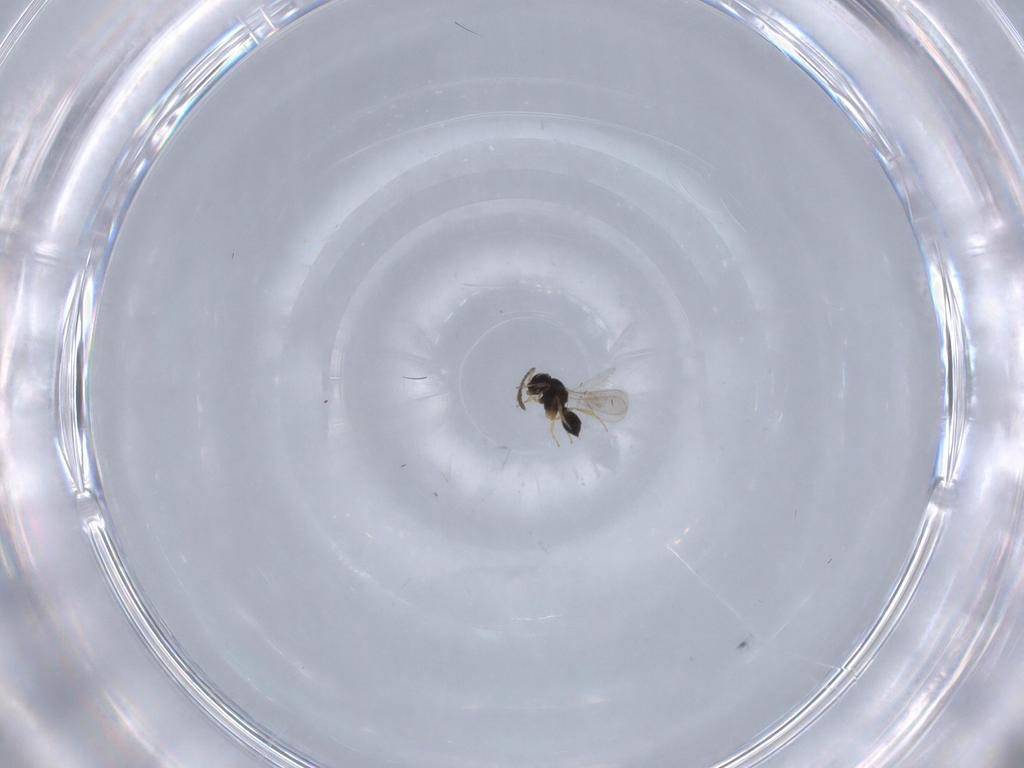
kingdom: Animalia
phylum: Arthropoda
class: Insecta
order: Hymenoptera
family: Scelionidae
